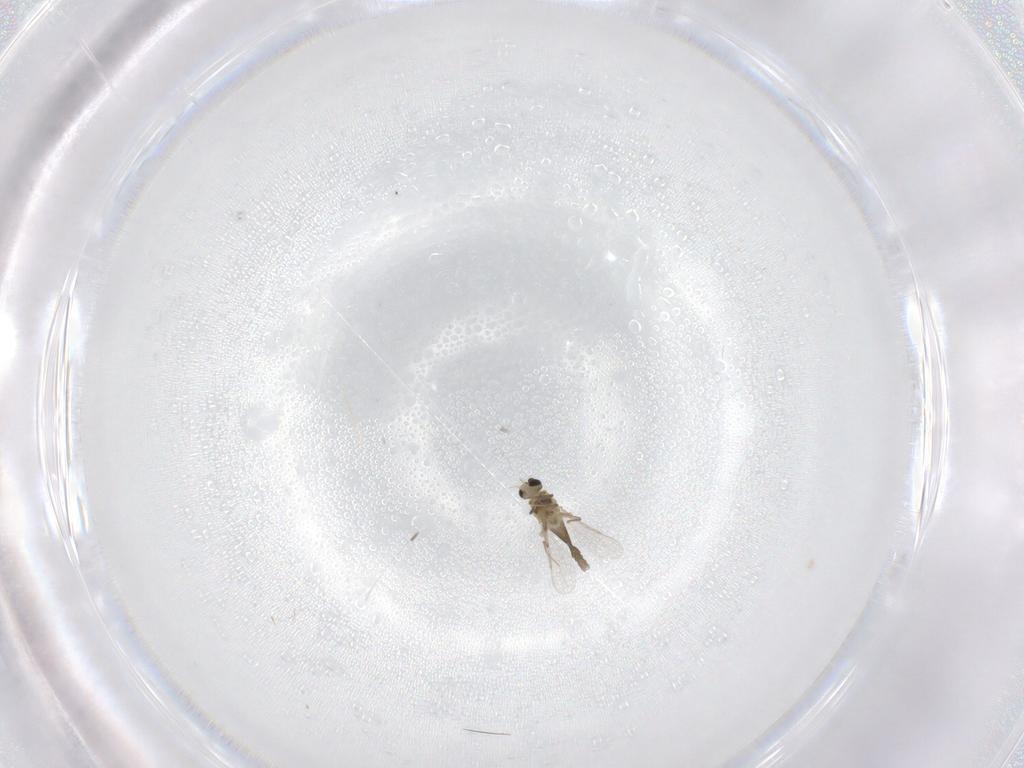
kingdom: Animalia
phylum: Arthropoda
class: Insecta
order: Diptera
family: Chironomidae
